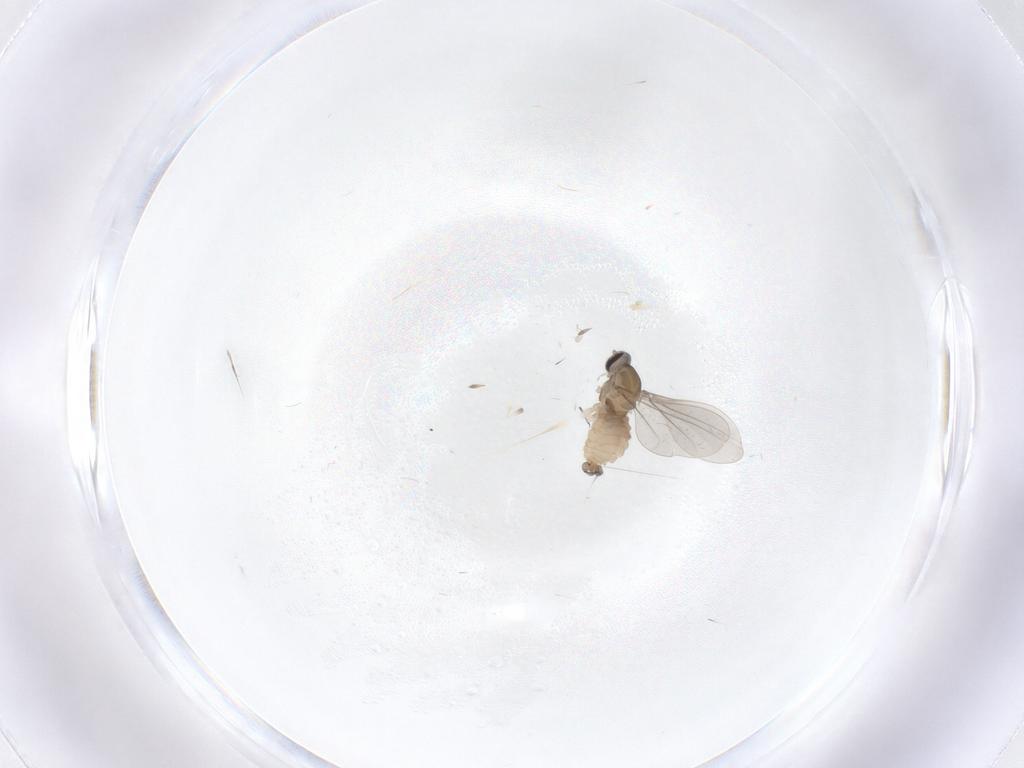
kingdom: Animalia
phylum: Arthropoda
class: Insecta
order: Diptera
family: Cecidomyiidae
